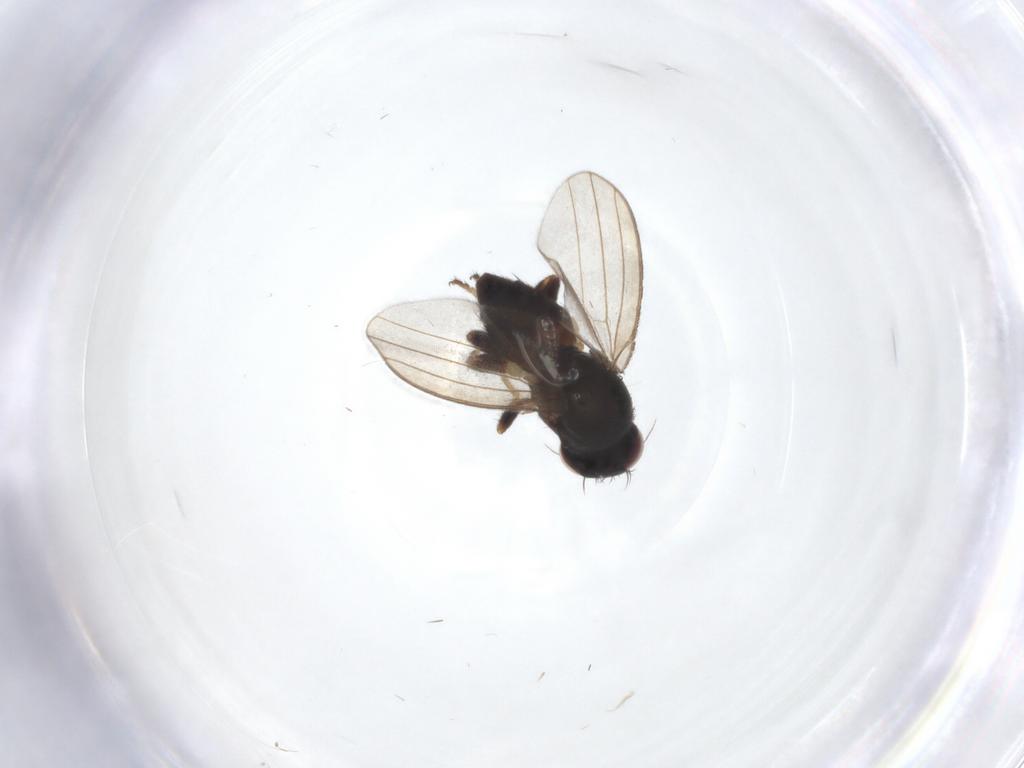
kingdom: Animalia
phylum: Arthropoda
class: Insecta
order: Diptera
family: Milichiidae
